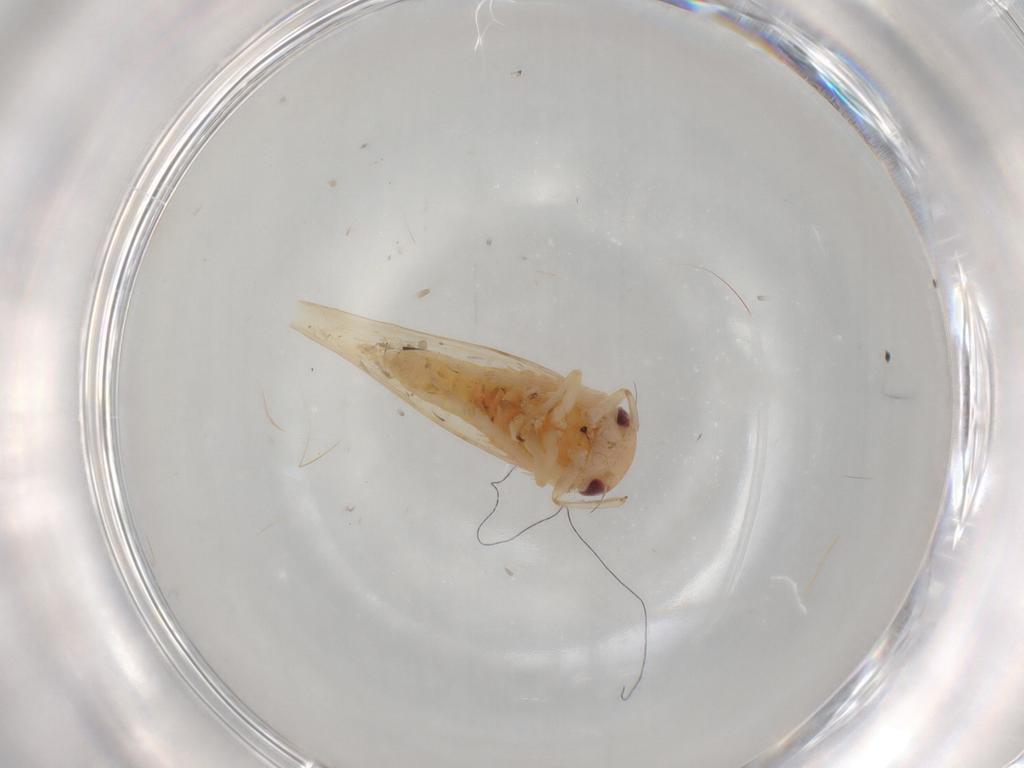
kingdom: Animalia
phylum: Arthropoda
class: Insecta
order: Hemiptera
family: Cicadellidae
